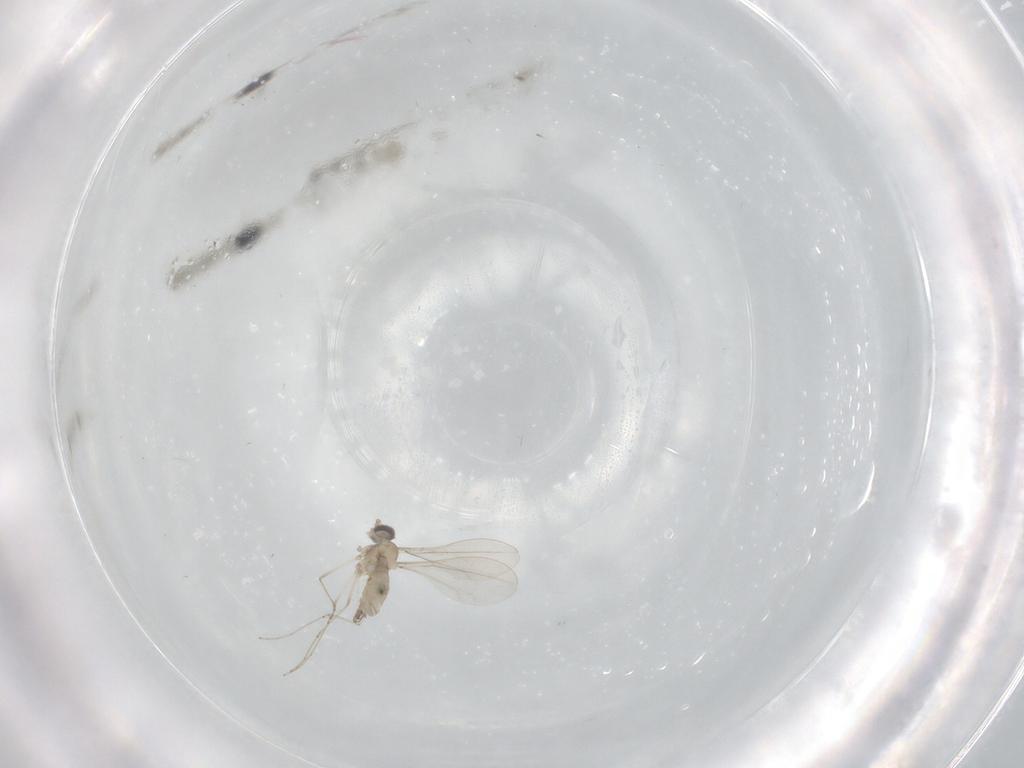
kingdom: Animalia
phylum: Arthropoda
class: Insecta
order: Diptera
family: Cecidomyiidae
